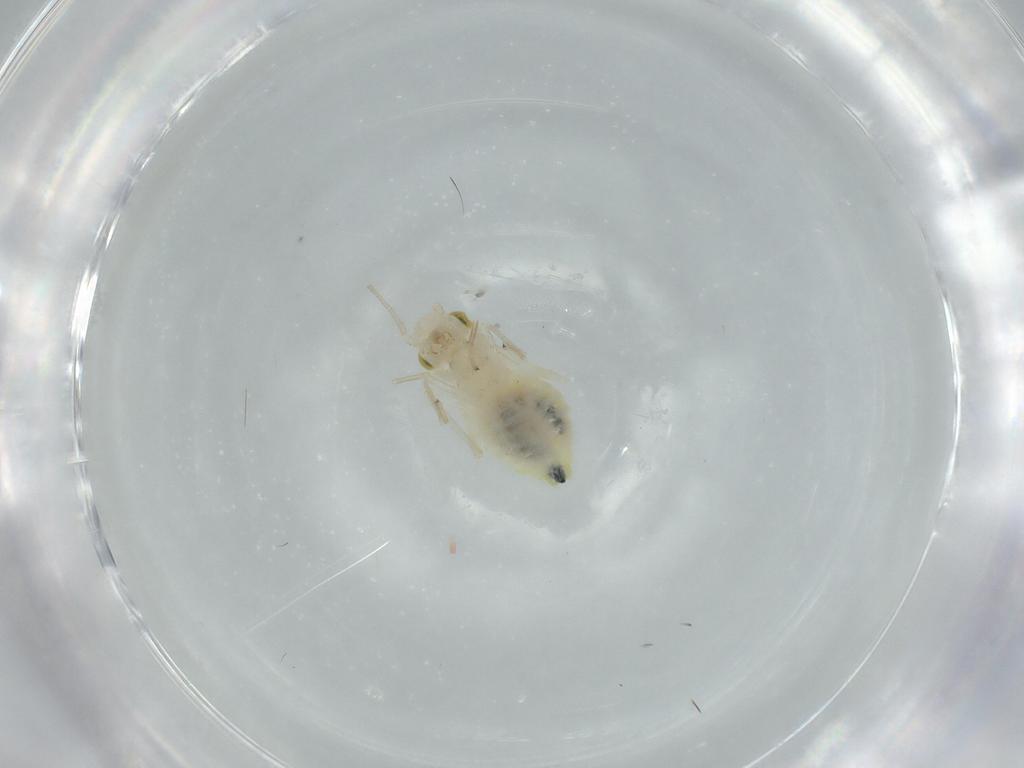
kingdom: Animalia
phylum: Arthropoda
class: Insecta
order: Psocodea
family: Caeciliusidae
